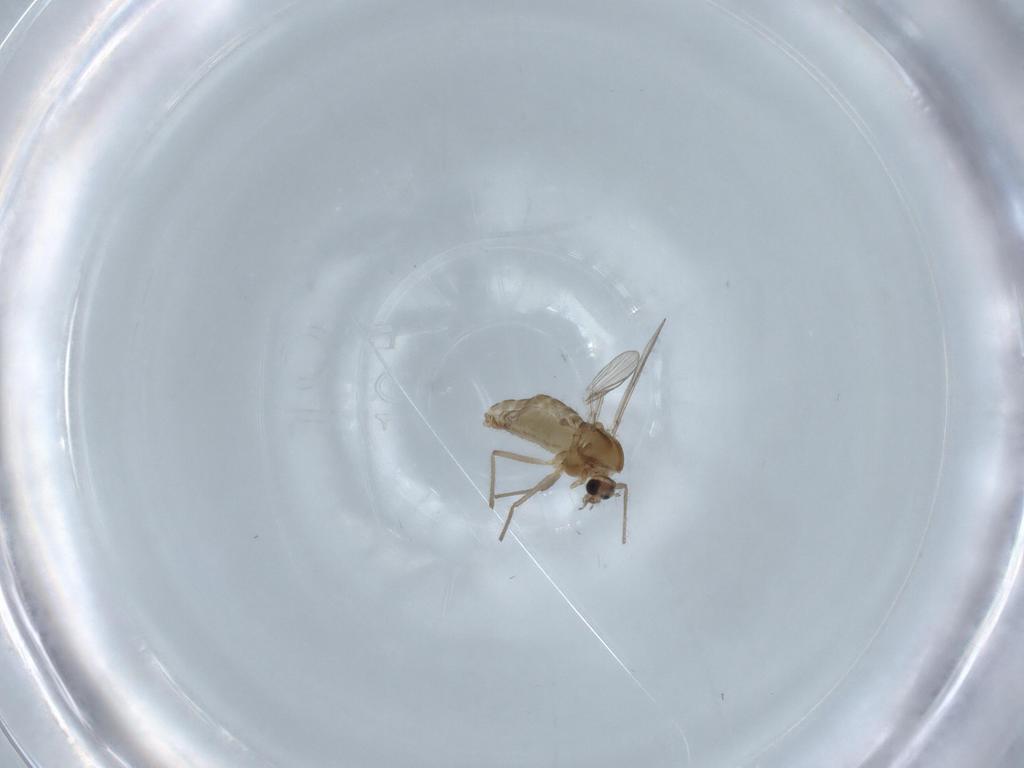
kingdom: Animalia
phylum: Arthropoda
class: Insecta
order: Diptera
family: Chironomidae
